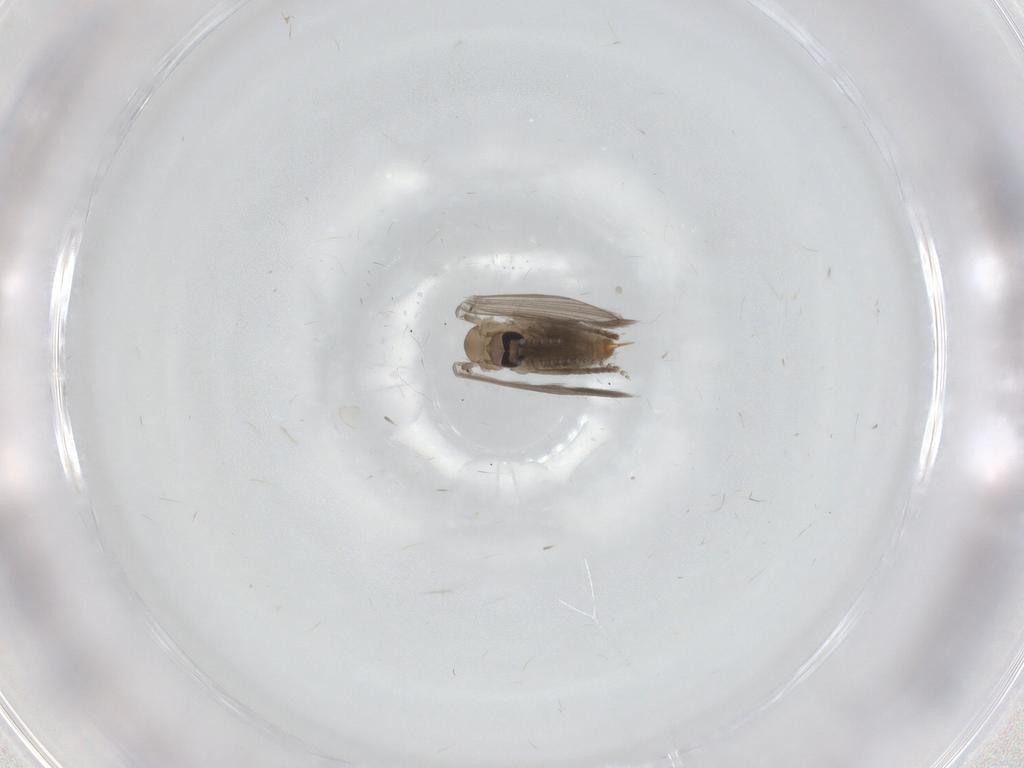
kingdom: Animalia
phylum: Arthropoda
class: Insecta
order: Diptera
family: Psychodidae
